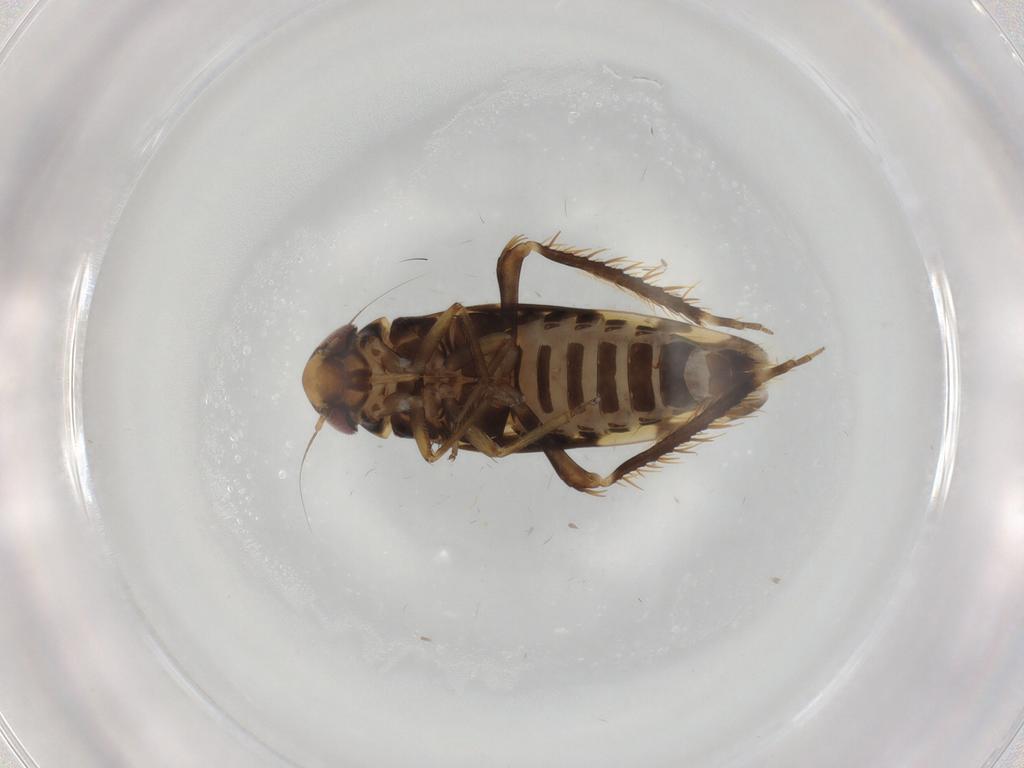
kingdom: Animalia
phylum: Arthropoda
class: Insecta
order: Hemiptera
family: Cicadellidae
